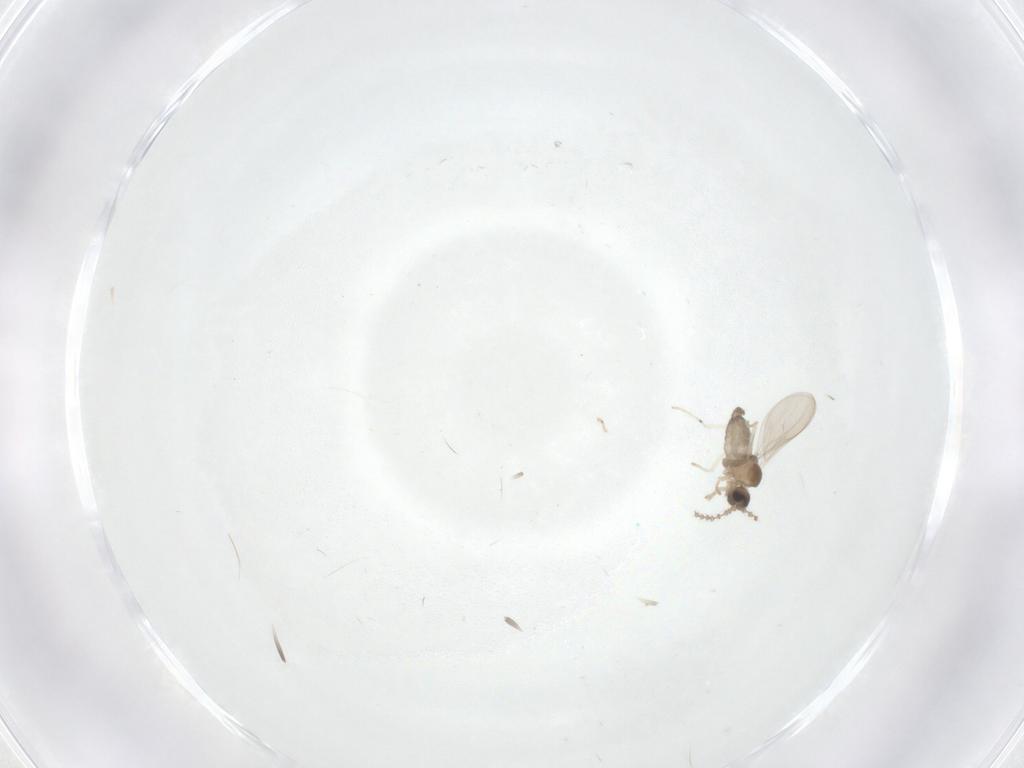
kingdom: Animalia
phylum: Arthropoda
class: Insecta
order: Diptera
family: Cecidomyiidae
